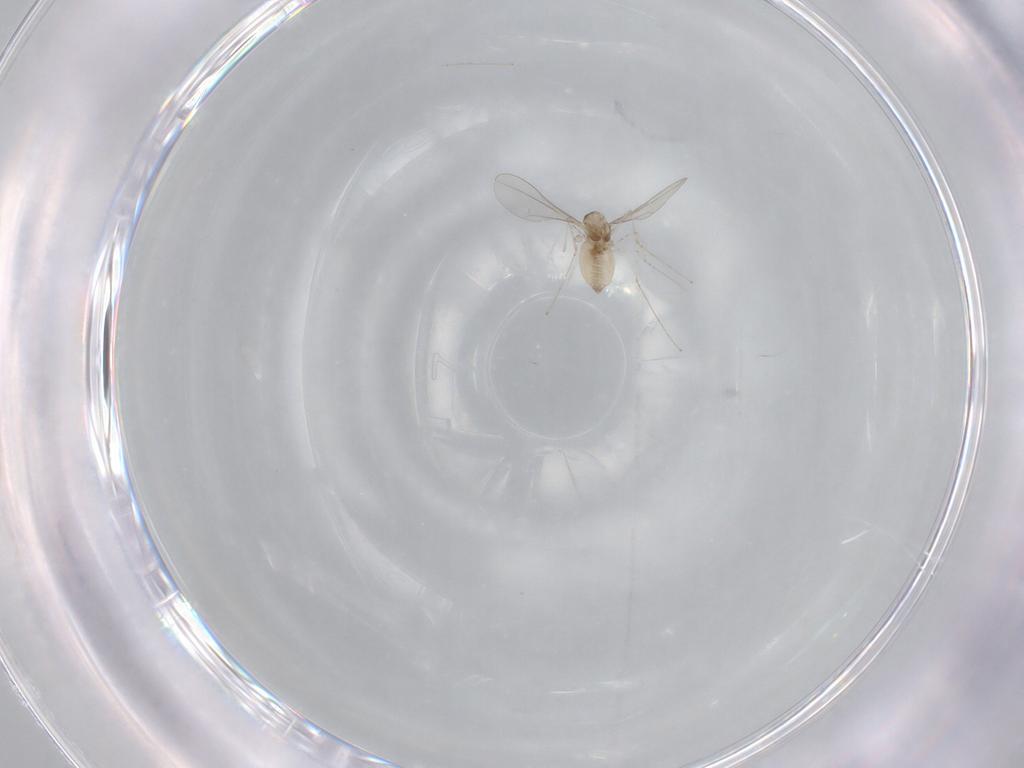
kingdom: Animalia
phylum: Arthropoda
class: Insecta
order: Diptera
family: Cecidomyiidae
